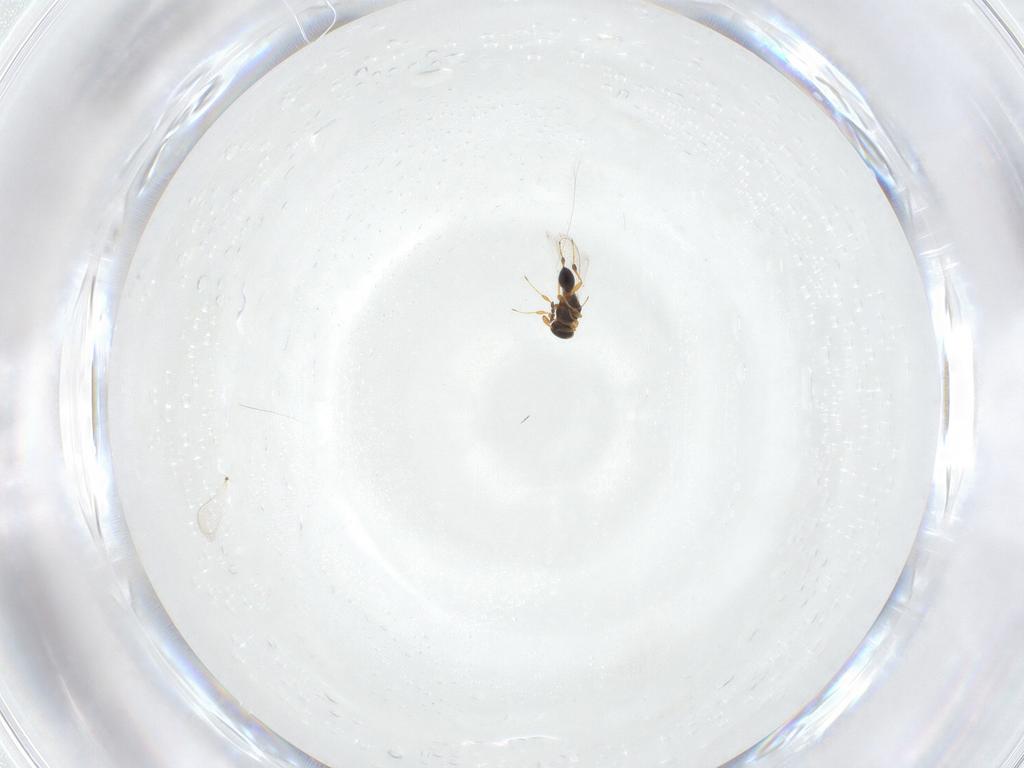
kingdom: Animalia
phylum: Arthropoda
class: Insecta
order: Hymenoptera
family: Platygastridae
